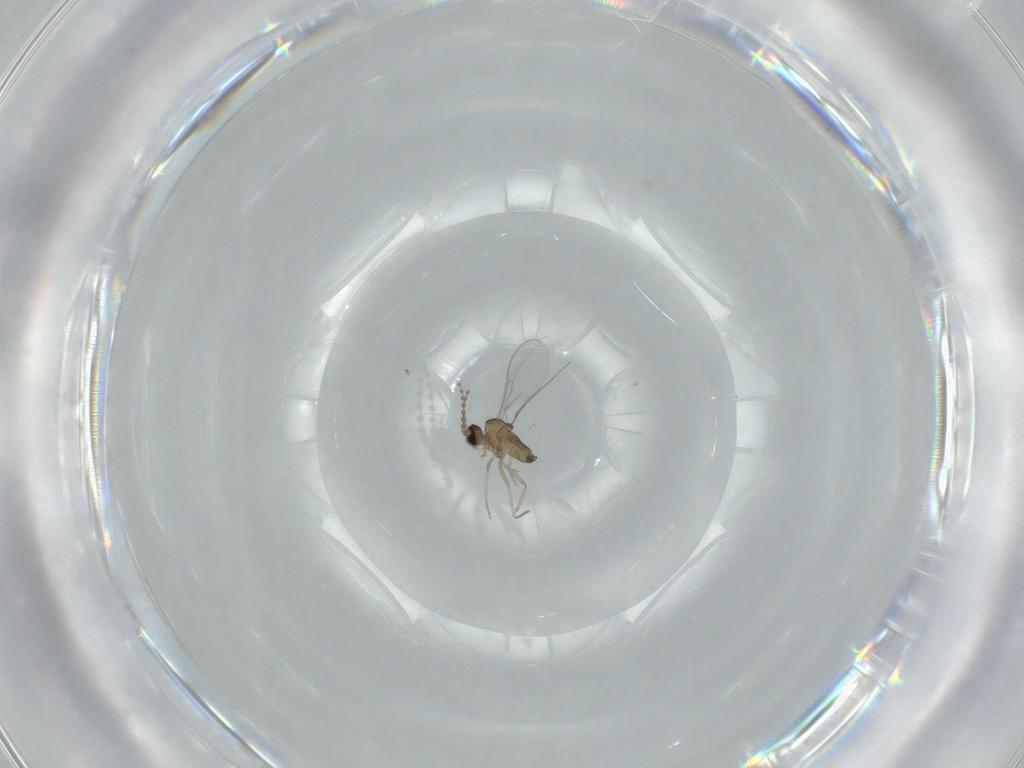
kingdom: Animalia
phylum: Arthropoda
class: Insecta
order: Diptera
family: Cecidomyiidae
